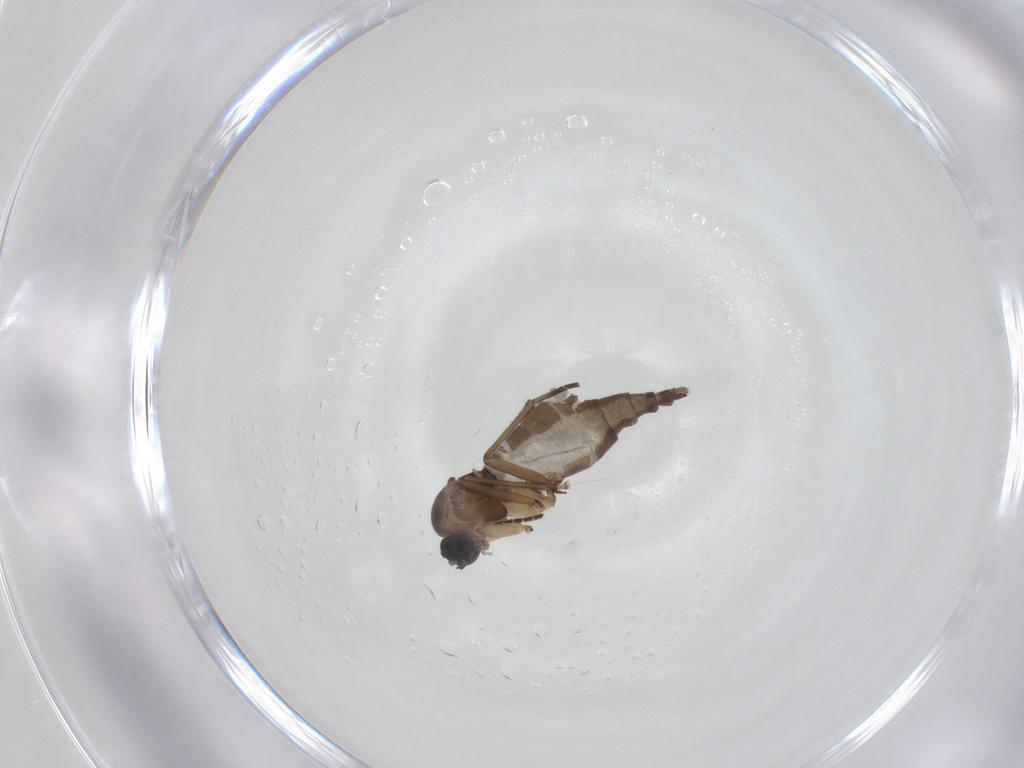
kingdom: Animalia
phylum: Arthropoda
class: Insecta
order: Diptera
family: Sciaridae
